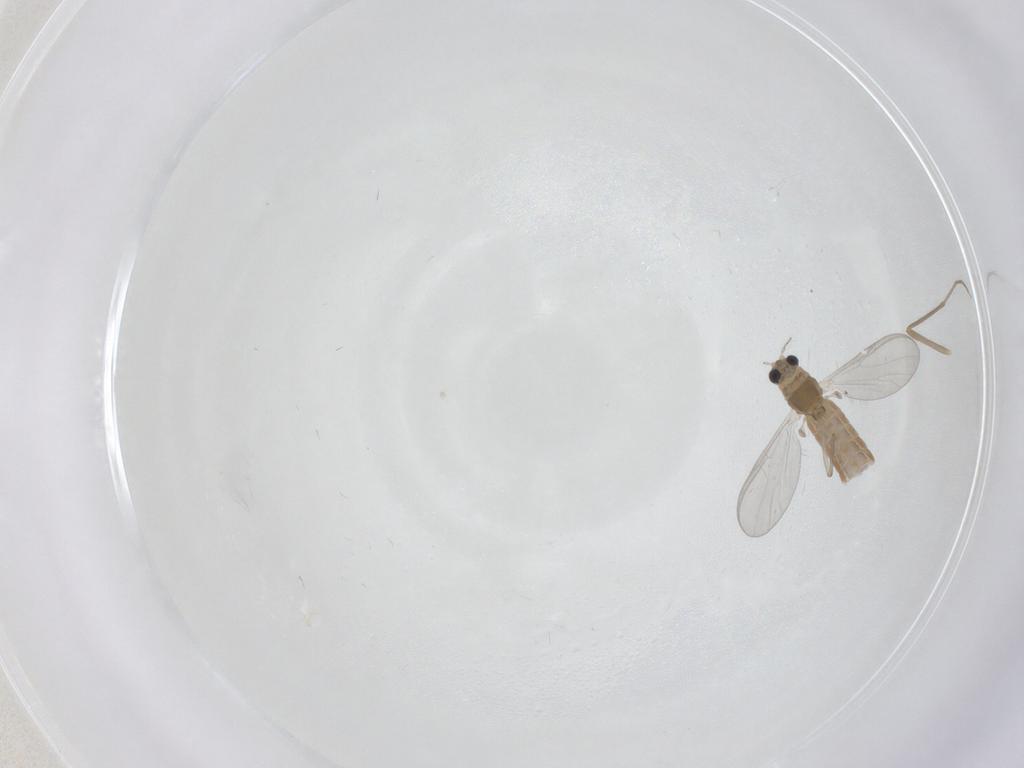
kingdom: Animalia
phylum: Arthropoda
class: Insecta
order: Diptera
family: Chironomidae
